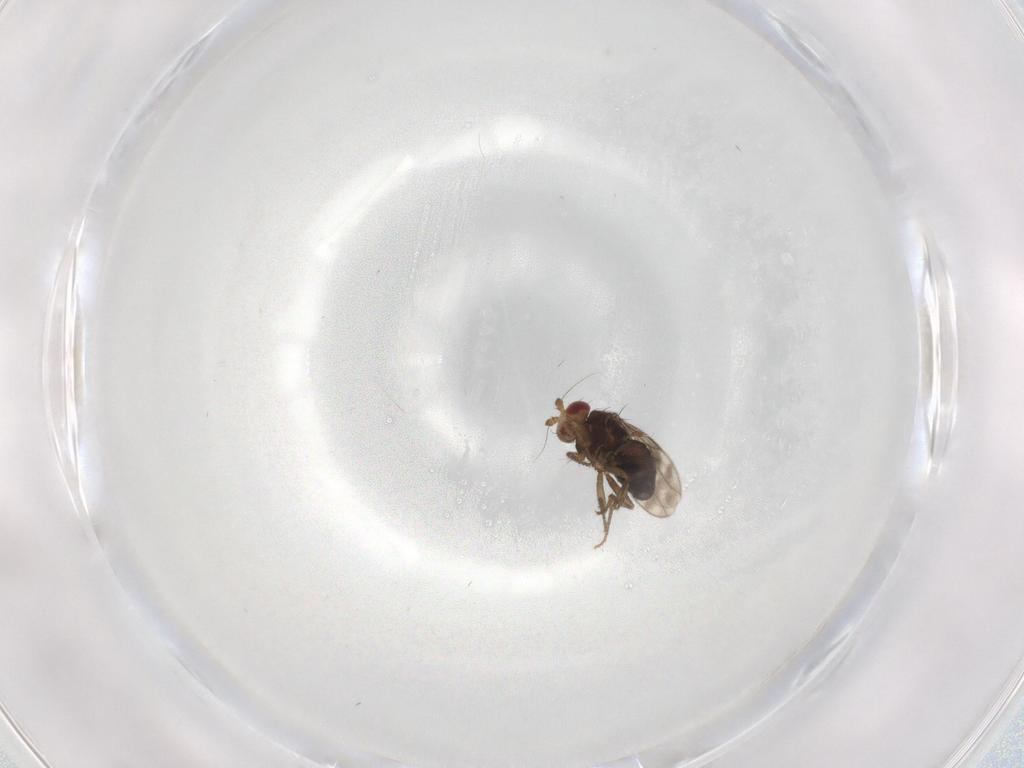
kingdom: Animalia
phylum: Arthropoda
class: Insecta
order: Diptera
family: Sphaeroceridae
